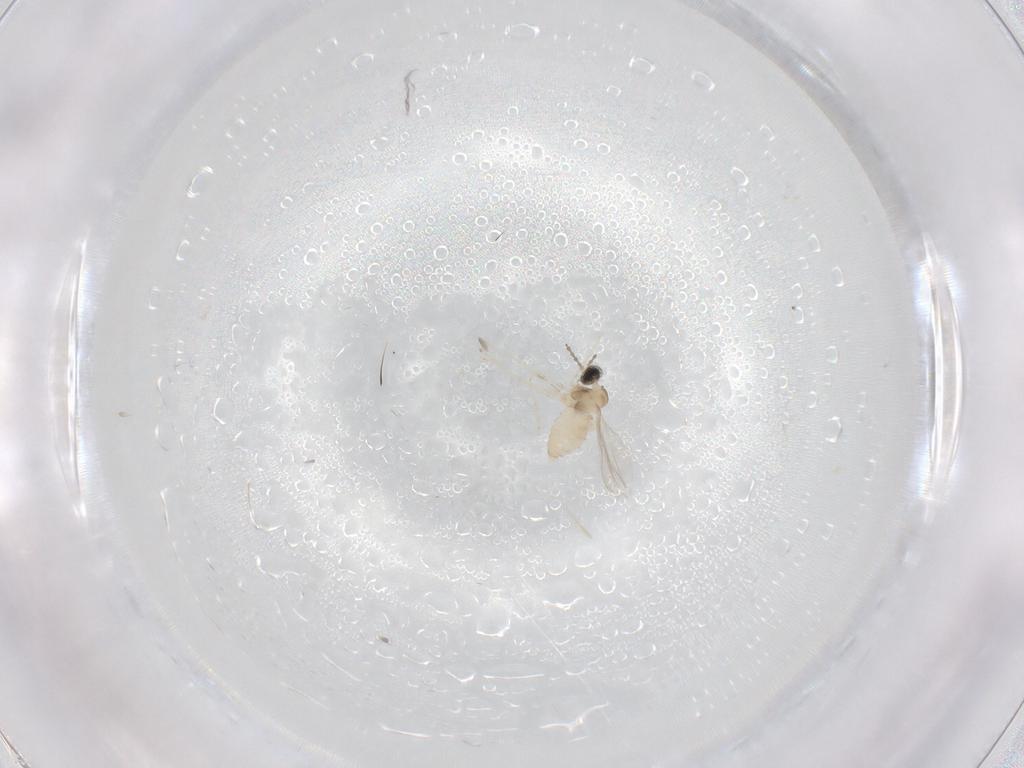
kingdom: Animalia
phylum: Arthropoda
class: Insecta
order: Diptera
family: Cecidomyiidae
